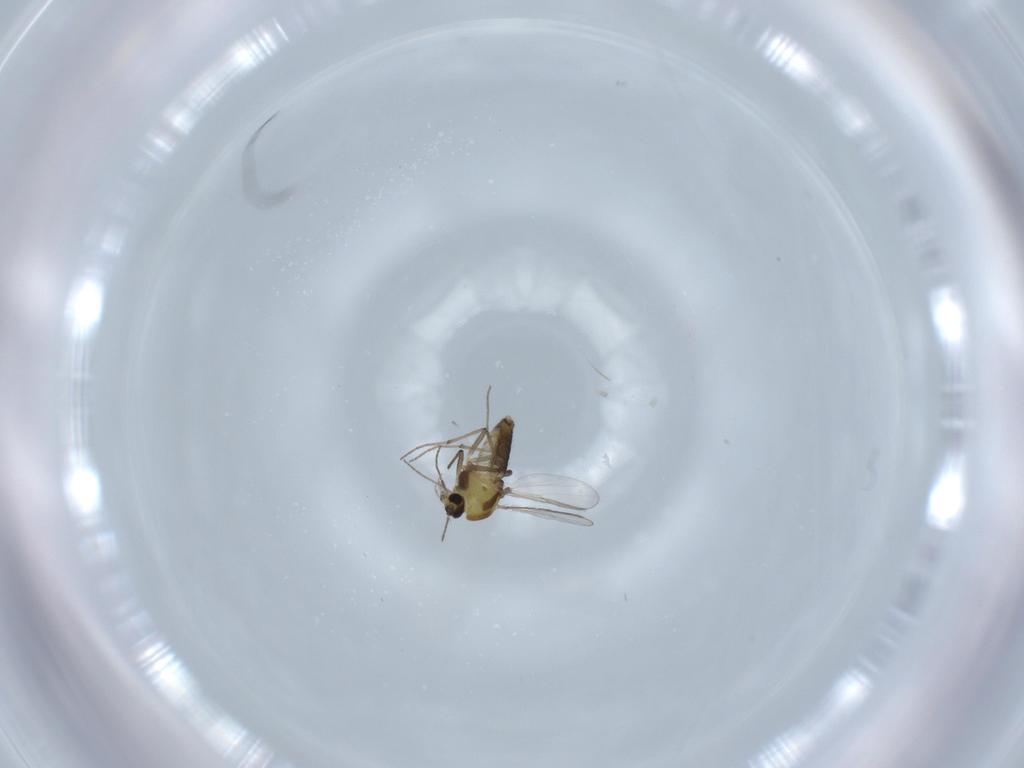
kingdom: Animalia
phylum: Arthropoda
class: Insecta
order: Diptera
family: Chironomidae
